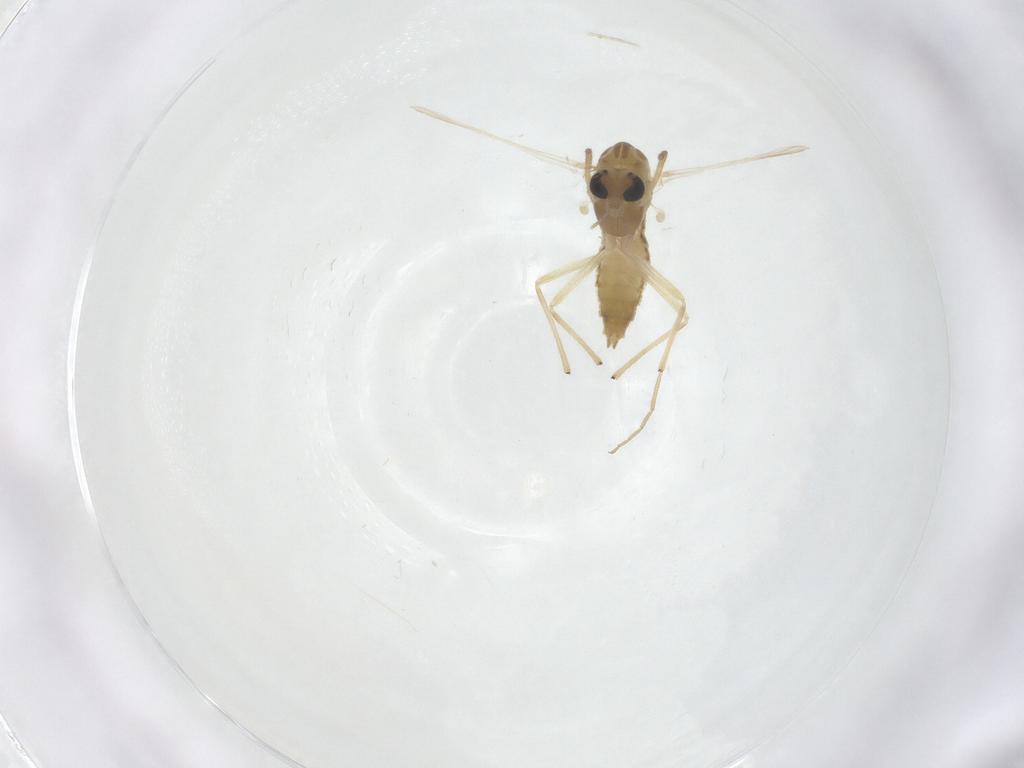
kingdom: Animalia
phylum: Arthropoda
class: Insecta
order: Diptera
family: Chironomidae
